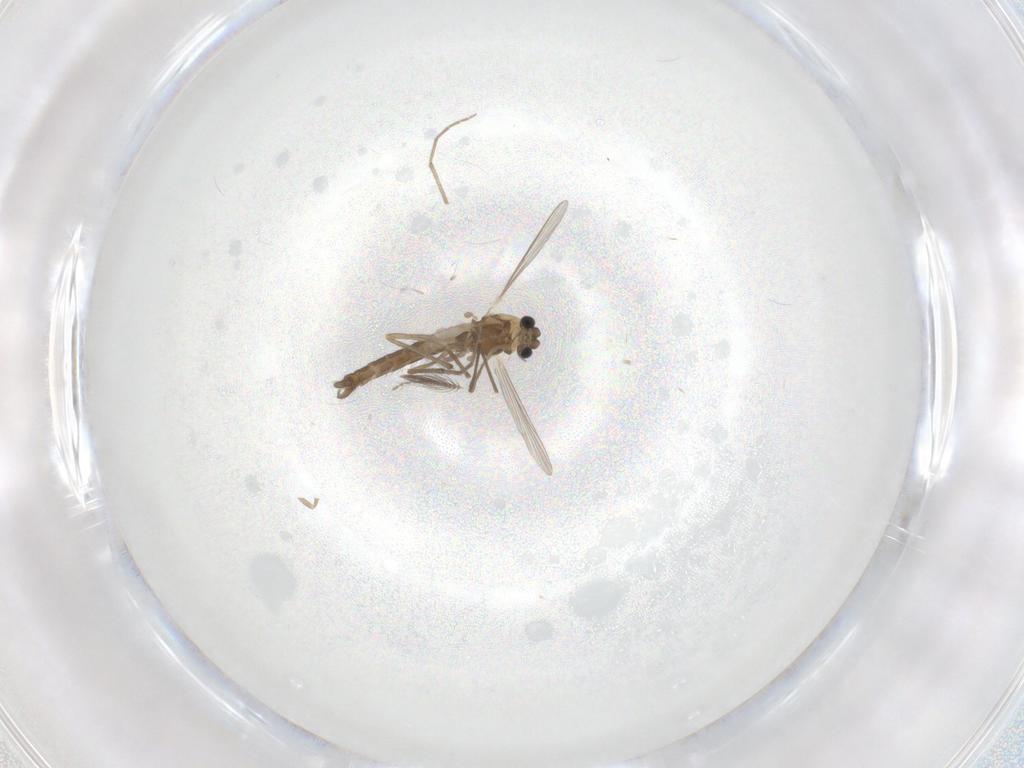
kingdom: Animalia
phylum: Arthropoda
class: Insecta
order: Diptera
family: Chironomidae
